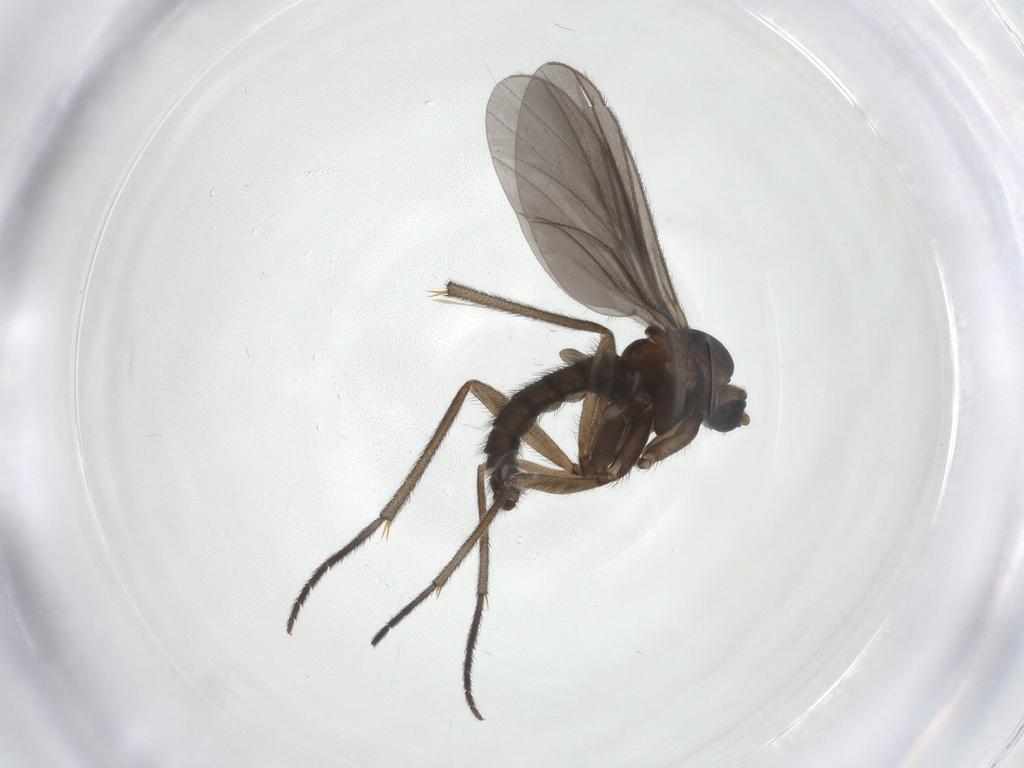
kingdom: Animalia
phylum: Arthropoda
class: Insecta
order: Diptera
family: Sciaridae
